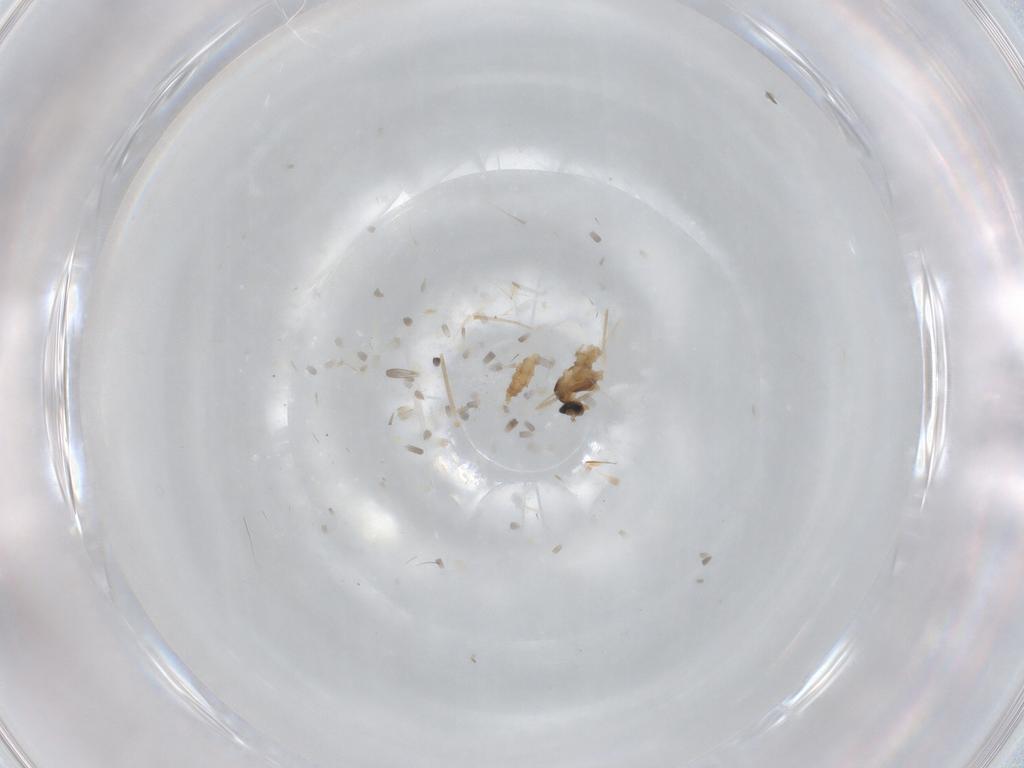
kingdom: Animalia
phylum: Arthropoda
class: Insecta
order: Diptera
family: Cecidomyiidae
